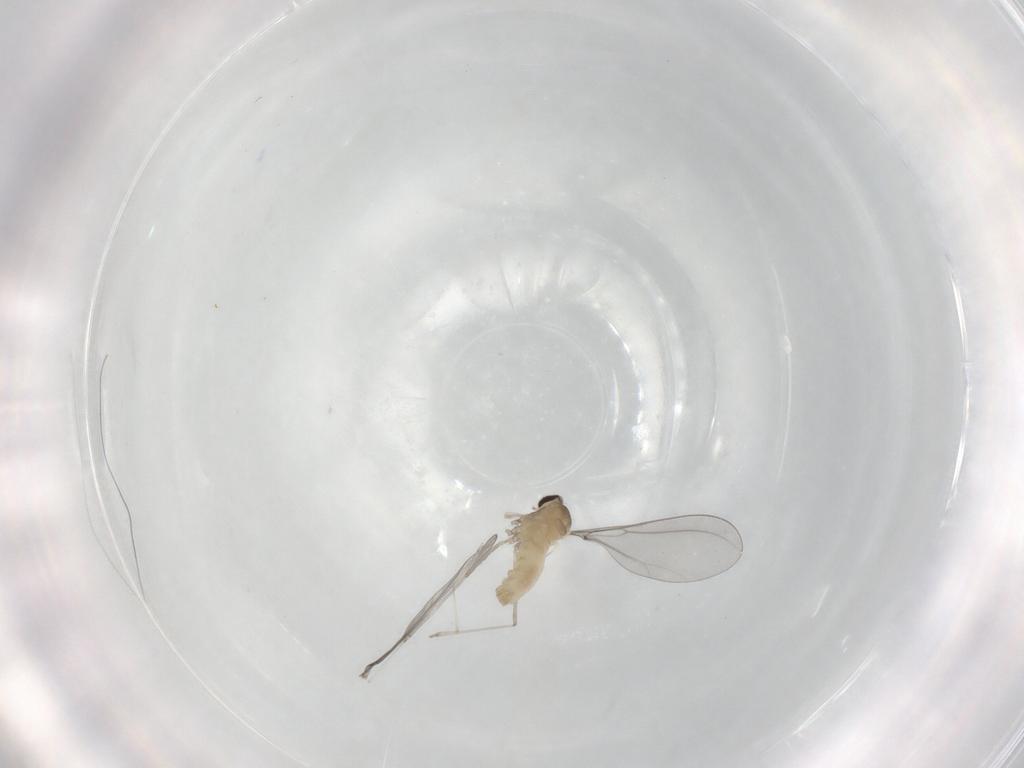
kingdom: Animalia
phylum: Arthropoda
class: Insecta
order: Diptera
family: Cecidomyiidae
